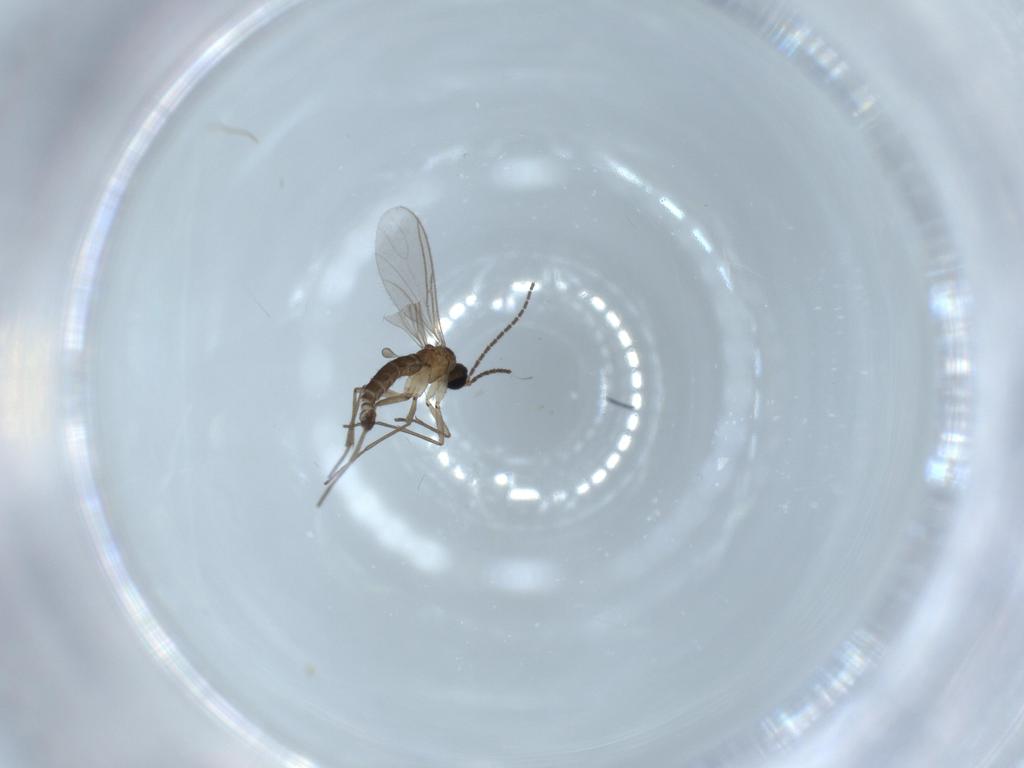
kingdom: Animalia
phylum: Arthropoda
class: Insecta
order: Diptera
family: Sciaridae
